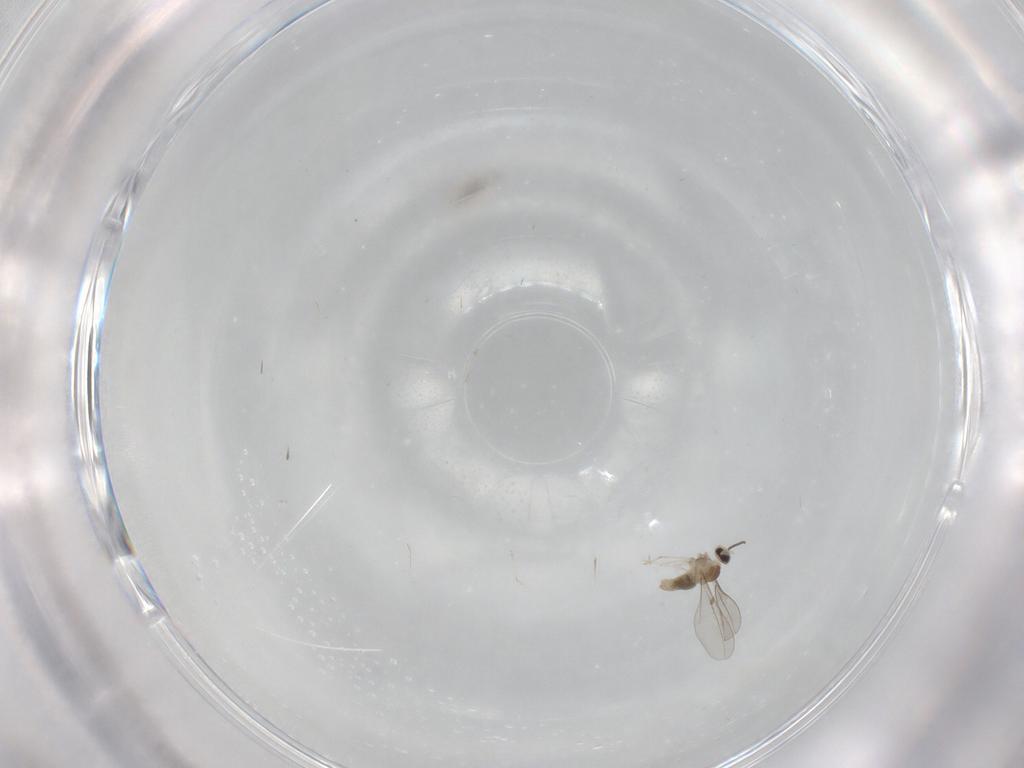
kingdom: Animalia
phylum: Arthropoda
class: Insecta
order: Diptera
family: Cecidomyiidae
